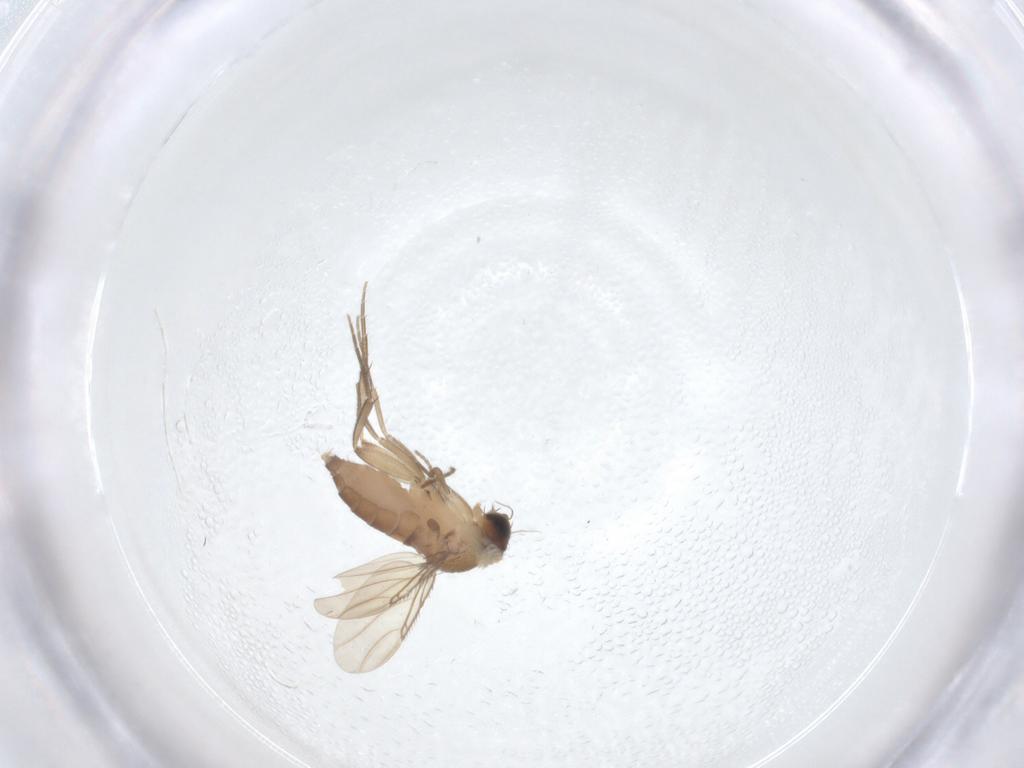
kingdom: Animalia
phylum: Arthropoda
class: Insecta
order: Diptera
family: Phoridae
